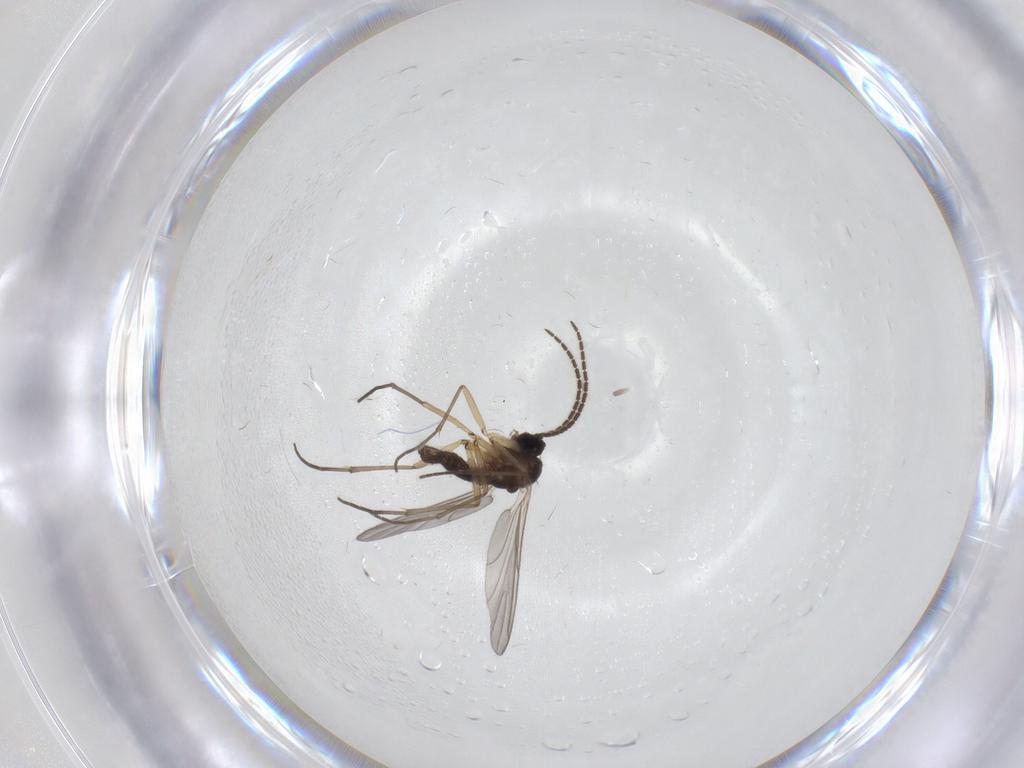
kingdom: Animalia
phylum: Arthropoda
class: Insecta
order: Diptera
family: Sciaridae
